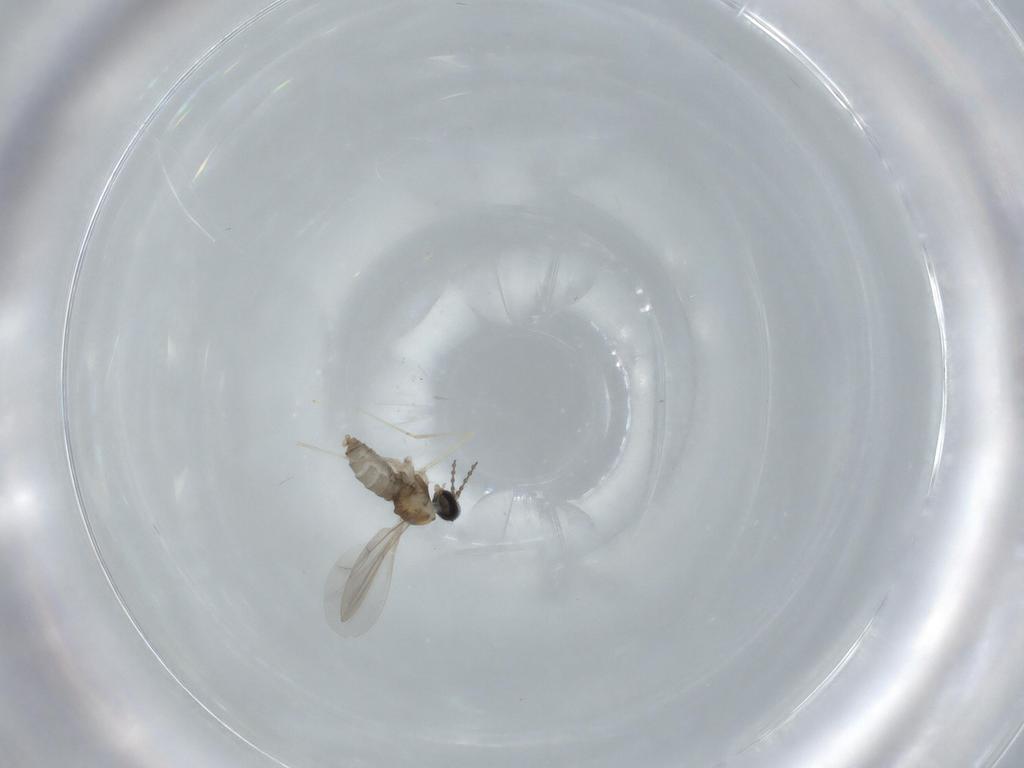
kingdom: Animalia
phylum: Arthropoda
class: Insecta
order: Diptera
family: Cecidomyiidae
